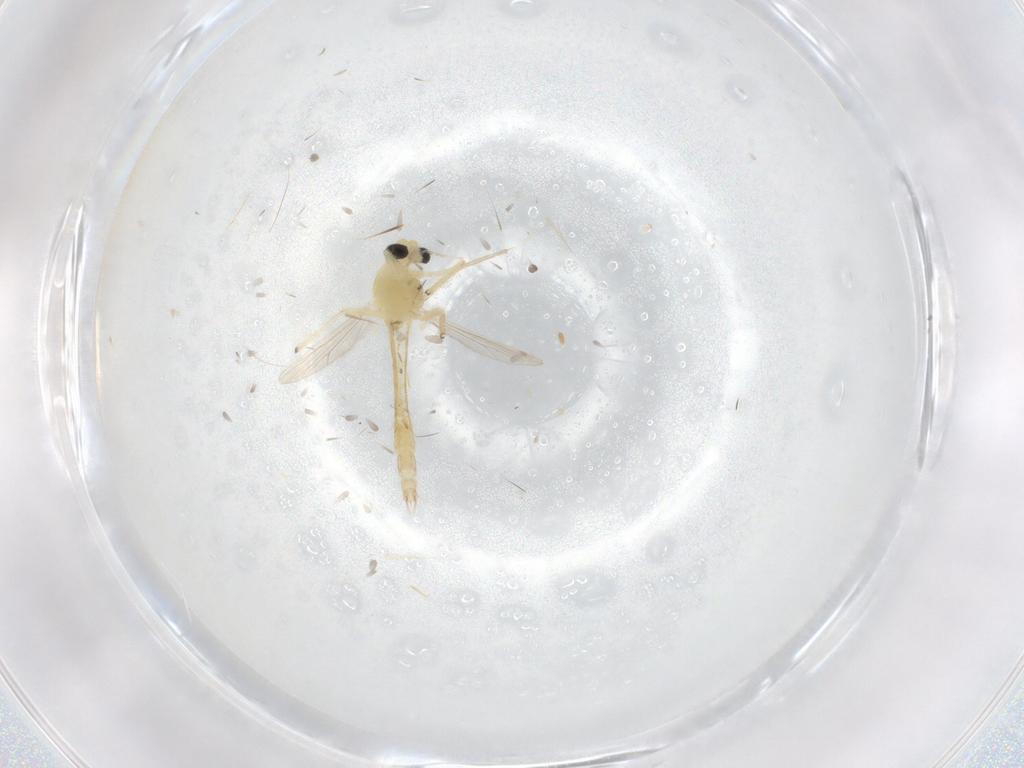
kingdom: Animalia
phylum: Arthropoda
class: Insecta
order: Diptera
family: Chironomidae
